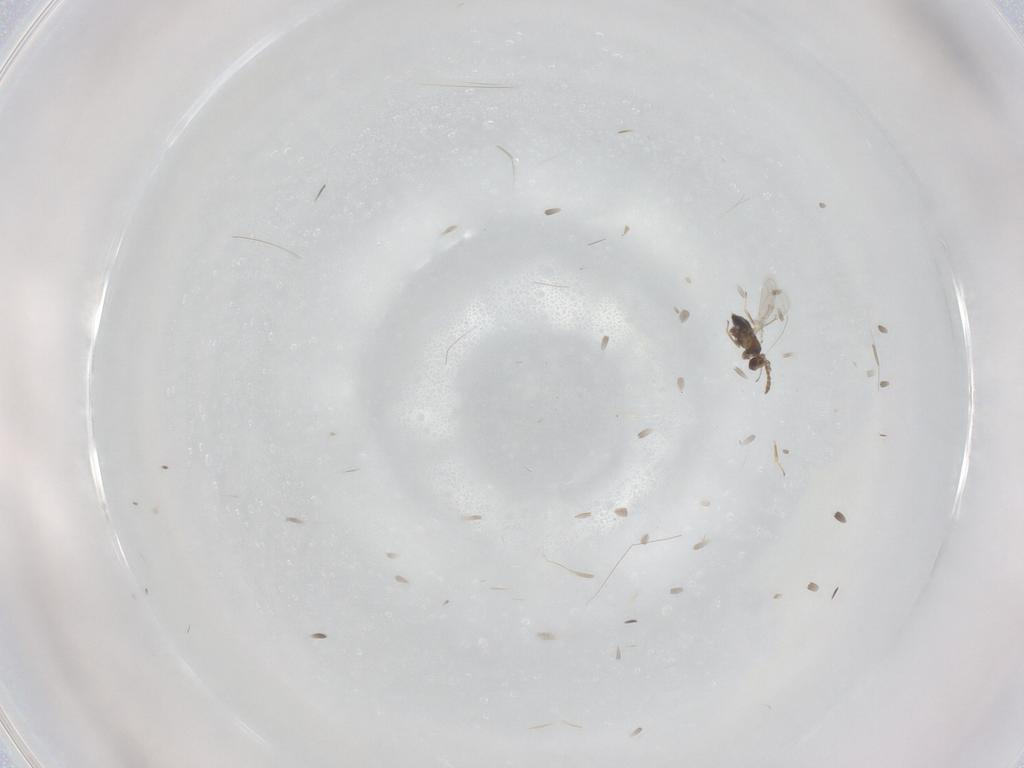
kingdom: Animalia
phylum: Arthropoda
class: Insecta
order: Hymenoptera
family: Aphelinidae
